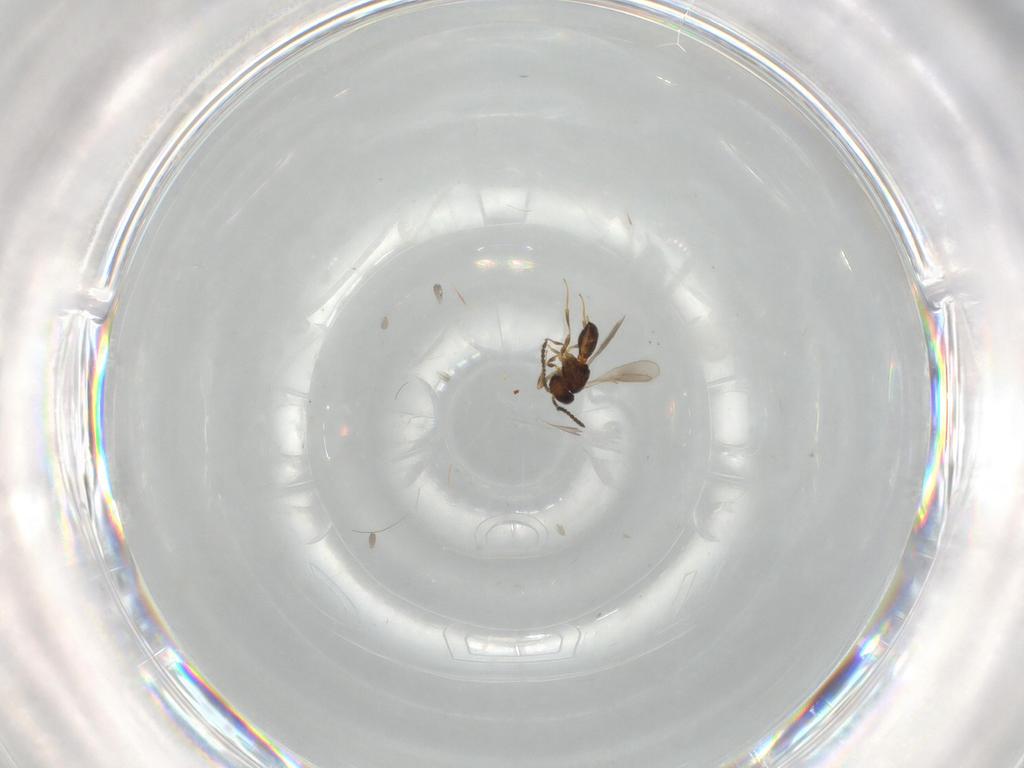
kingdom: Animalia
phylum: Arthropoda
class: Insecta
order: Hymenoptera
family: Scelionidae
